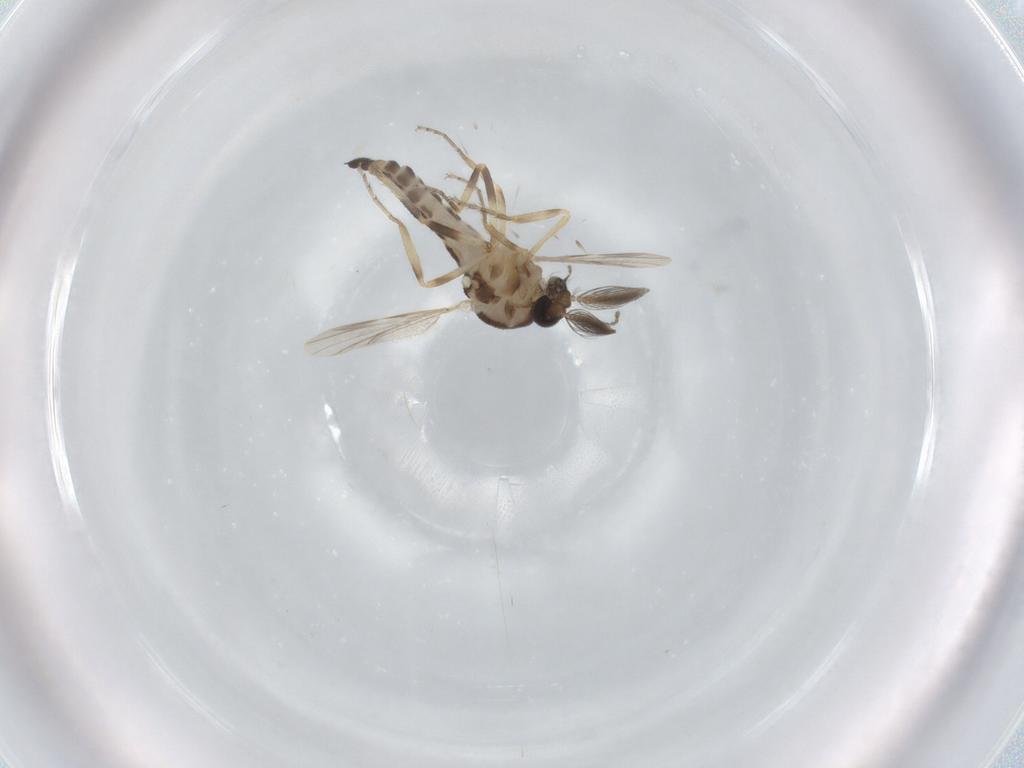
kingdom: Animalia
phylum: Arthropoda
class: Insecta
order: Diptera
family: Ceratopogonidae
